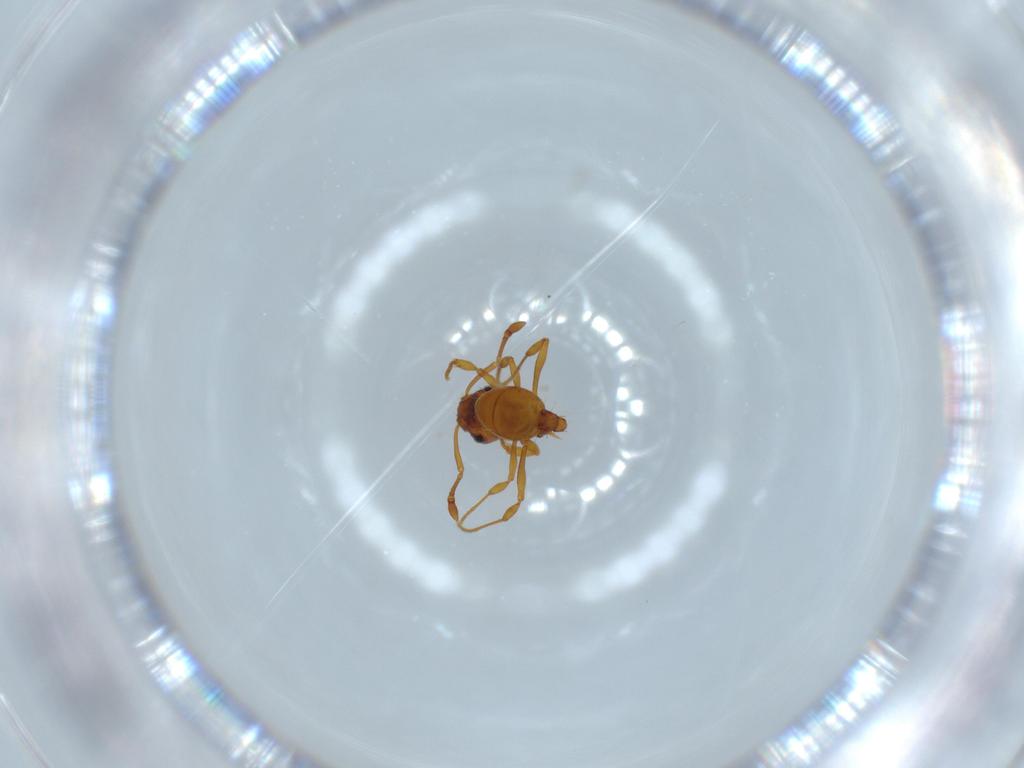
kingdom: Animalia
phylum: Arthropoda
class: Insecta
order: Hymenoptera
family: Formicidae
